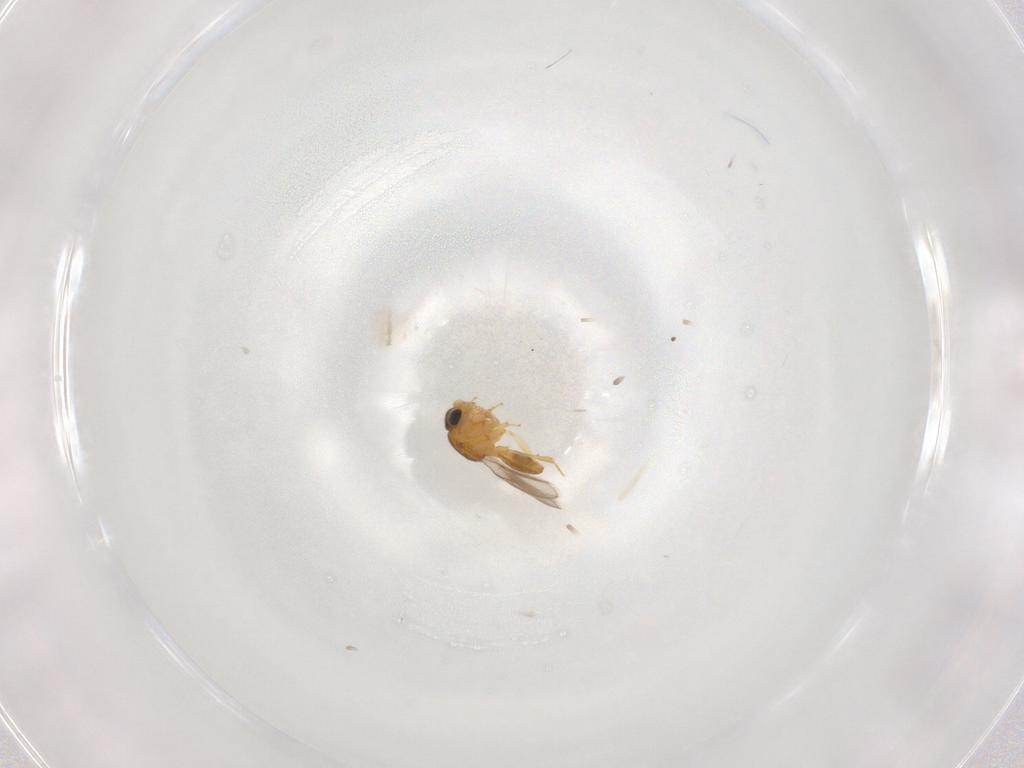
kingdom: Animalia
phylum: Arthropoda
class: Insecta
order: Hymenoptera
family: Scelionidae
